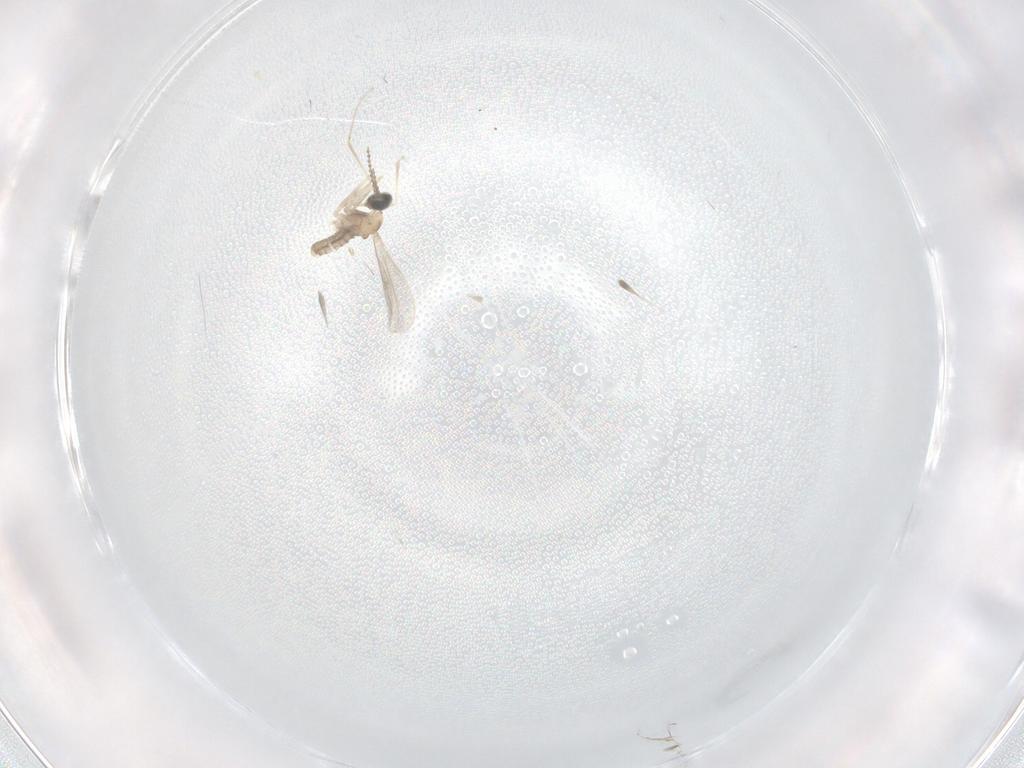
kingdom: Animalia
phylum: Arthropoda
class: Insecta
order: Diptera
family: Cecidomyiidae
